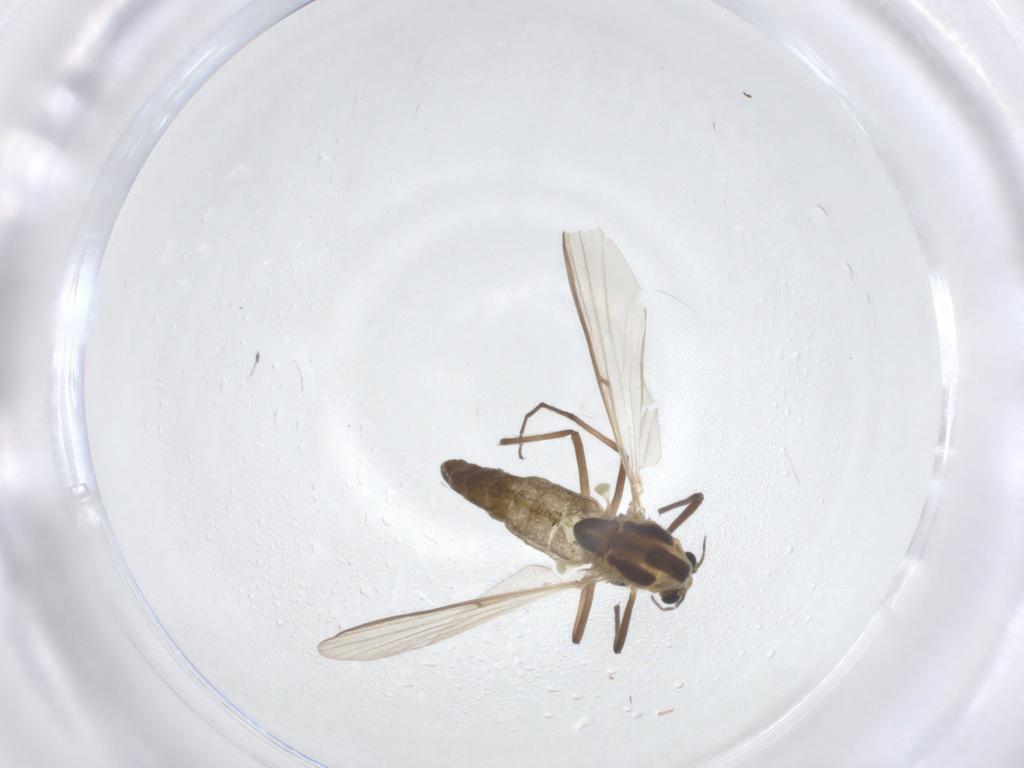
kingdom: Animalia
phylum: Arthropoda
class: Insecta
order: Diptera
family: Chironomidae
